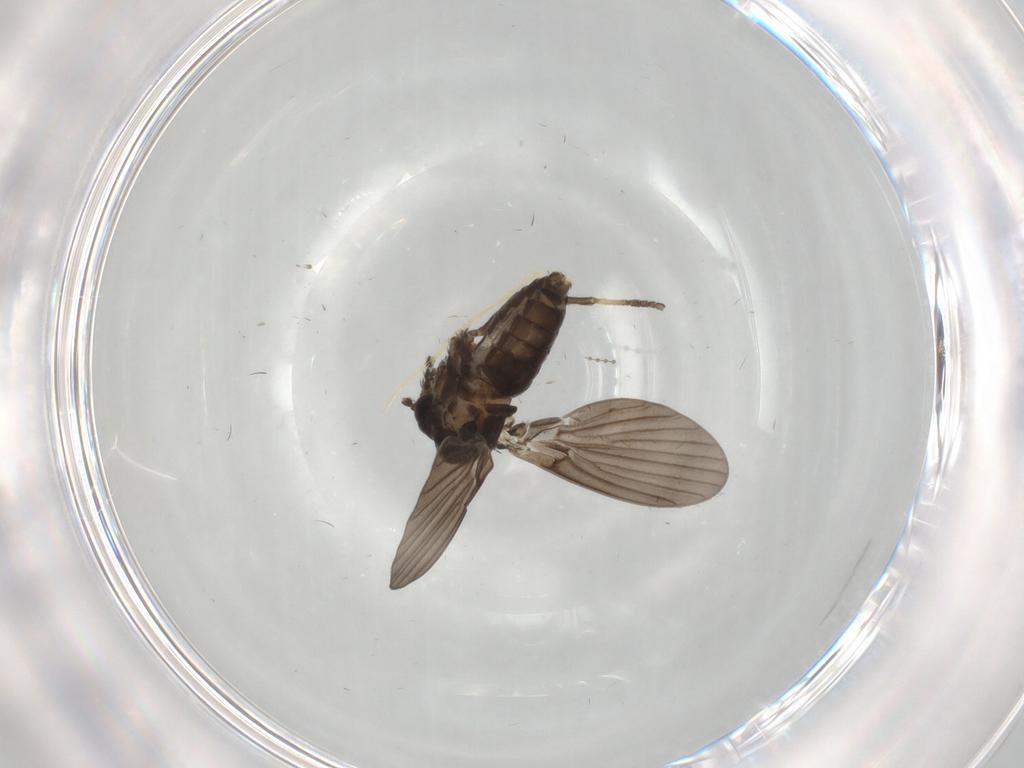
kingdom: Animalia
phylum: Arthropoda
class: Insecta
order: Diptera
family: Psychodidae
